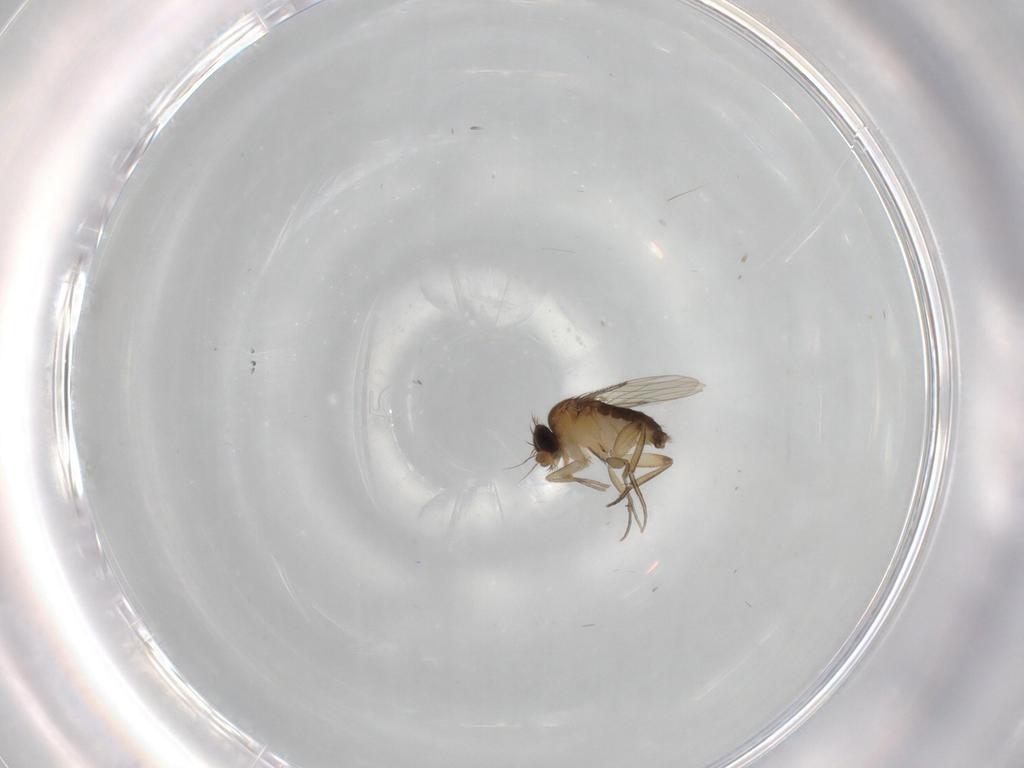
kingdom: Animalia
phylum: Arthropoda
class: Insecta
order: Diptera
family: Phoridae
